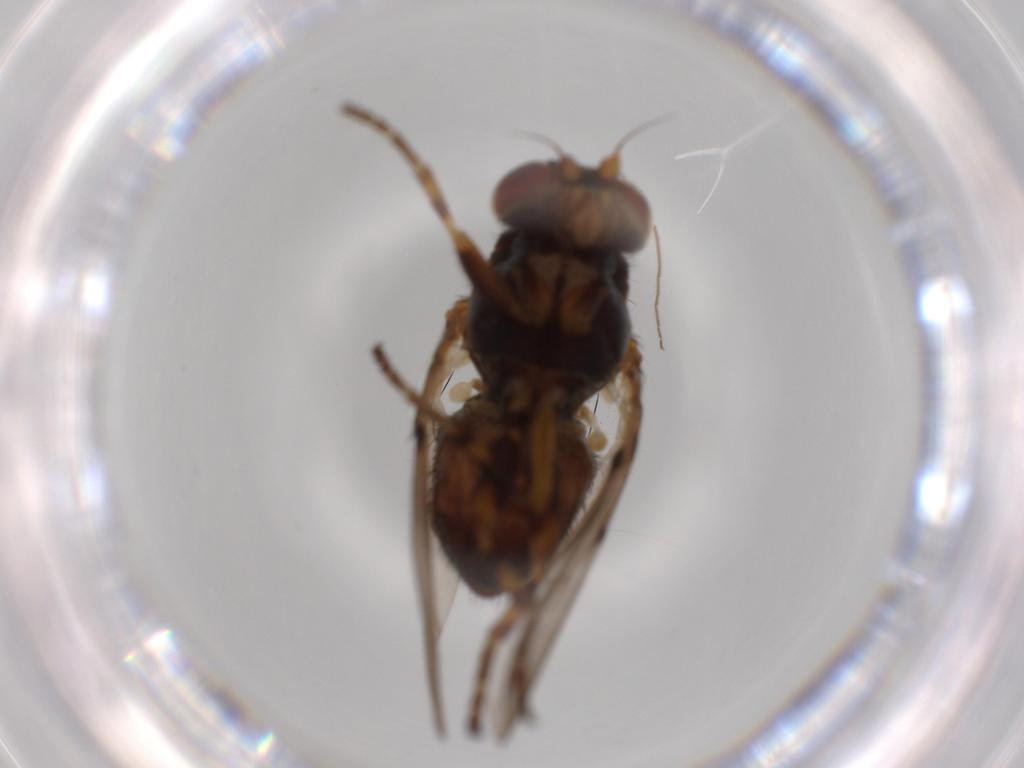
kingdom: Animalia
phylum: Arthropoda
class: Insecta
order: Diptera
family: Odiniidae
